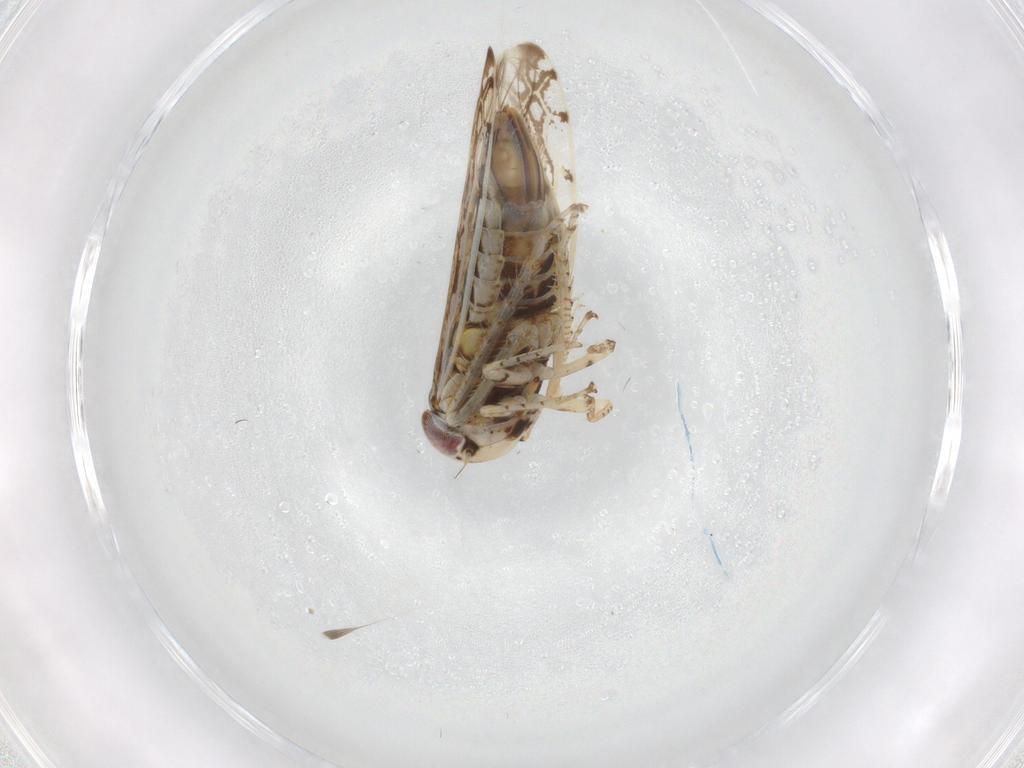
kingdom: Animalia
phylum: Arthropoda
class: Insecta
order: Hemiptera
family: Cicadellidae
